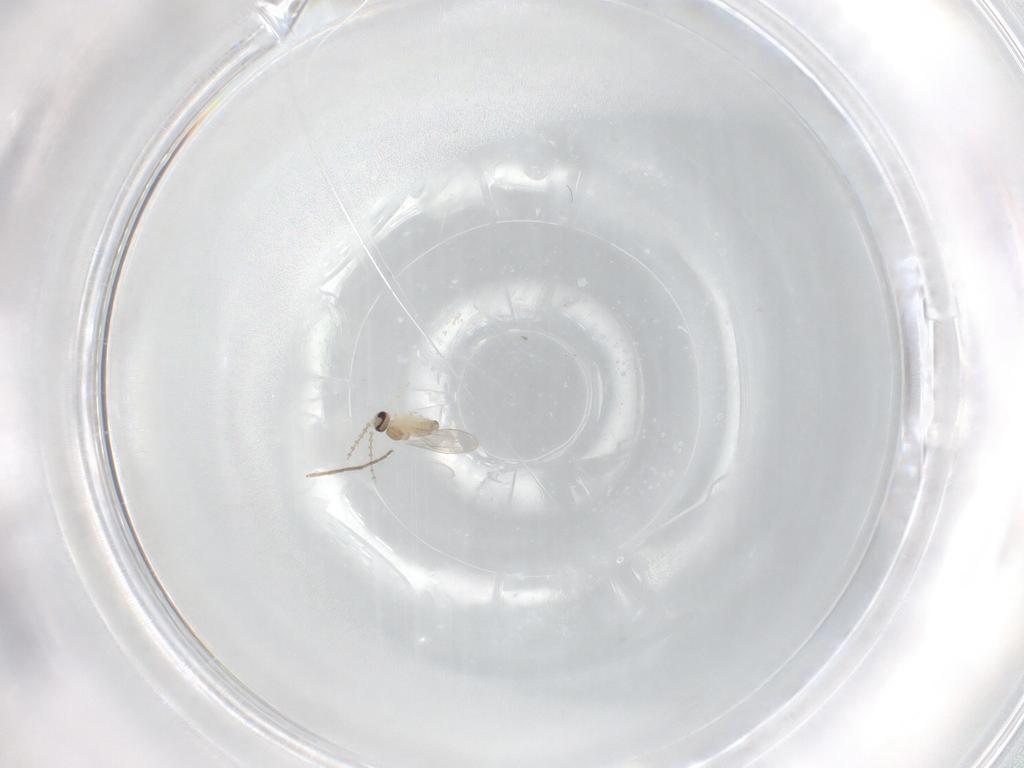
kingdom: Animalia
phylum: Arthropoda
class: Insecta
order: Diptera
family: Cecidomyiidae
